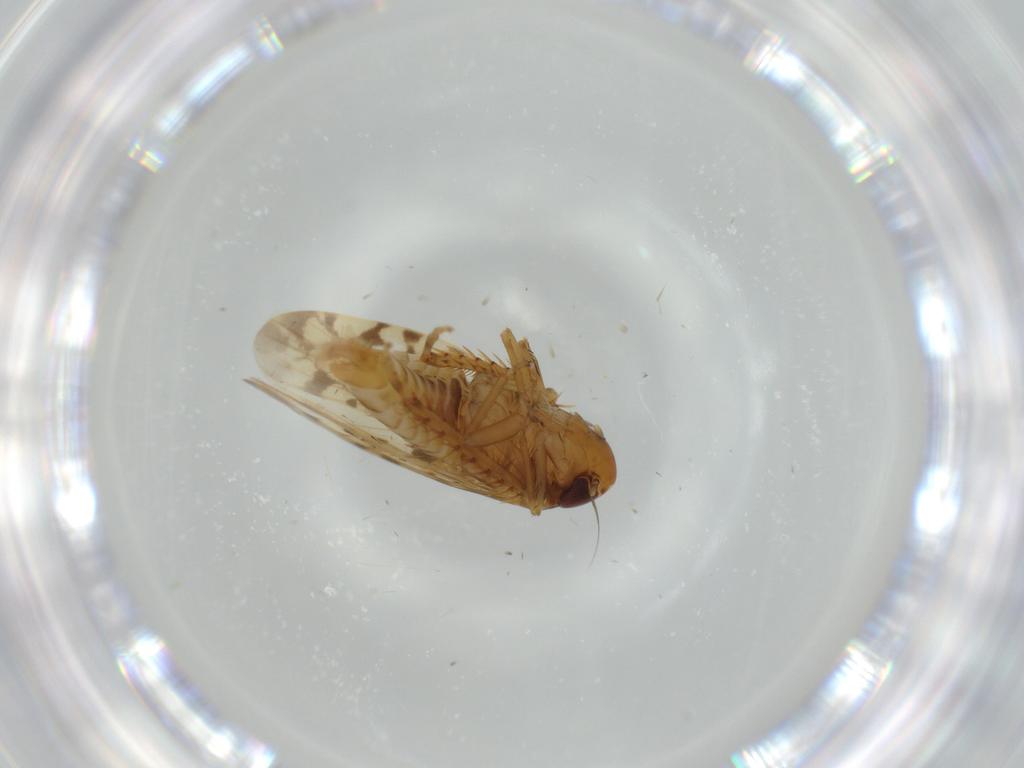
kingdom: Animalia
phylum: Arthropoda
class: Insecta
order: Hemiptera
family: Cicadellidae
